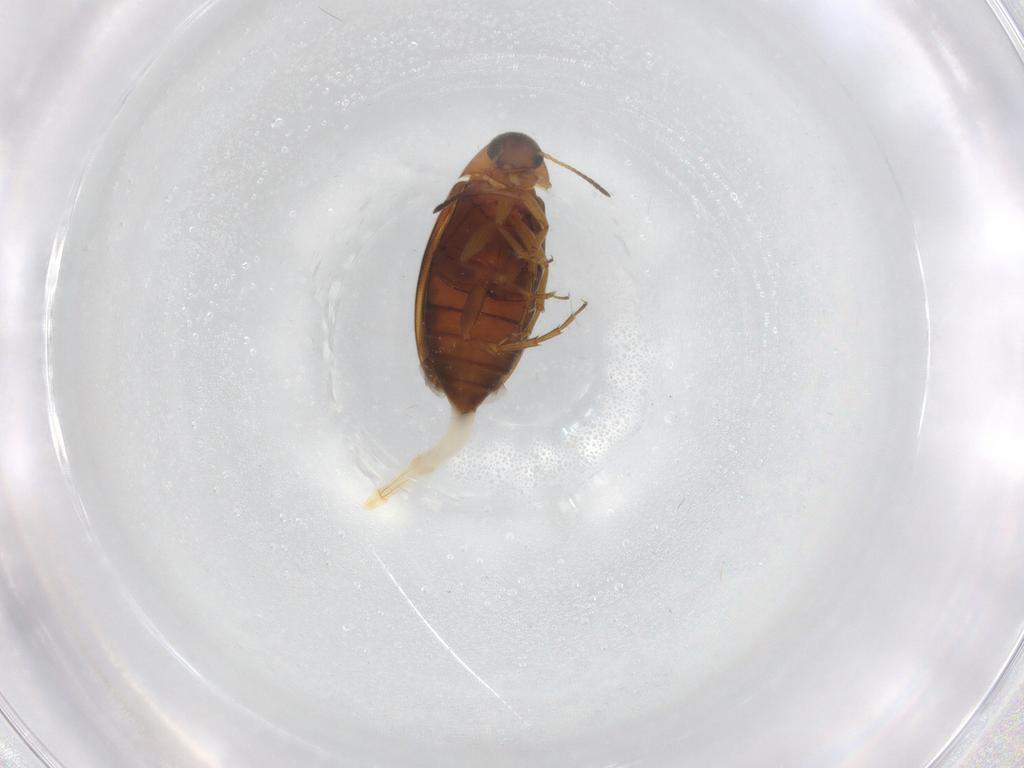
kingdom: Animalia
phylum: Arthropoda
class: Insecta
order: Coleoptera
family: Scraptiidae
